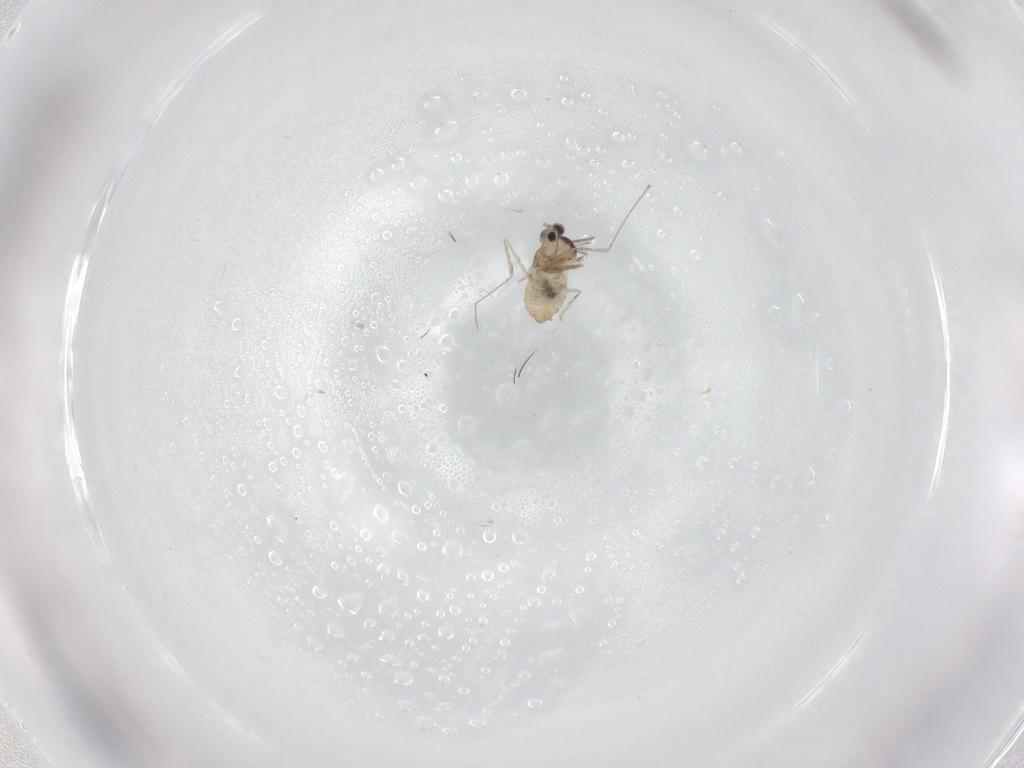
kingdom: Animalia
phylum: Arthropoda
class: Insecta
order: Diptera
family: Cecidomyiidae
